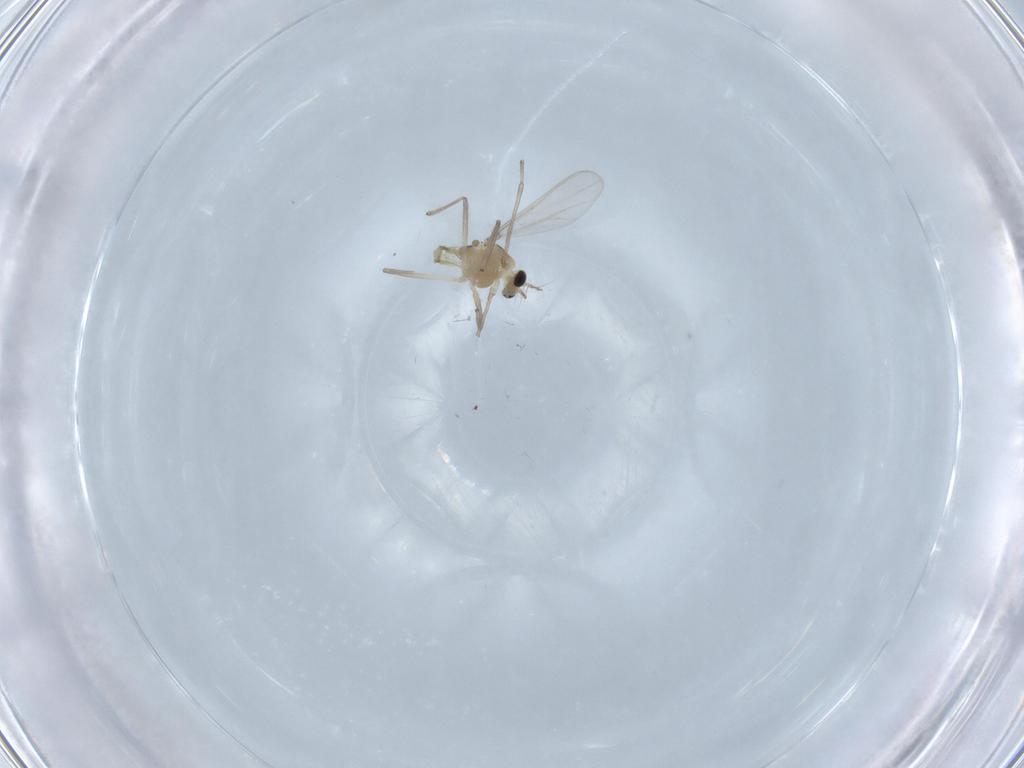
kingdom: Animalia
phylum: Arthropoda
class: Insecta
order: Diptera
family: Chironomidae
